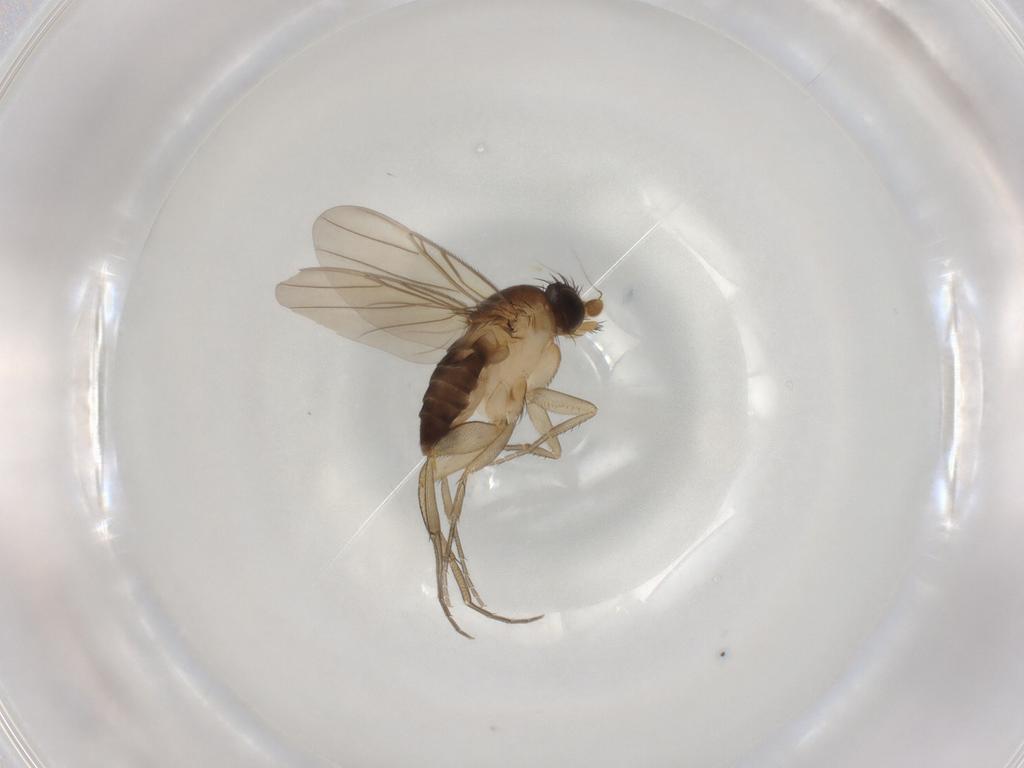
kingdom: Animalia
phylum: Arthropoda
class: Insecta
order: Diptera
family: Phoridae
